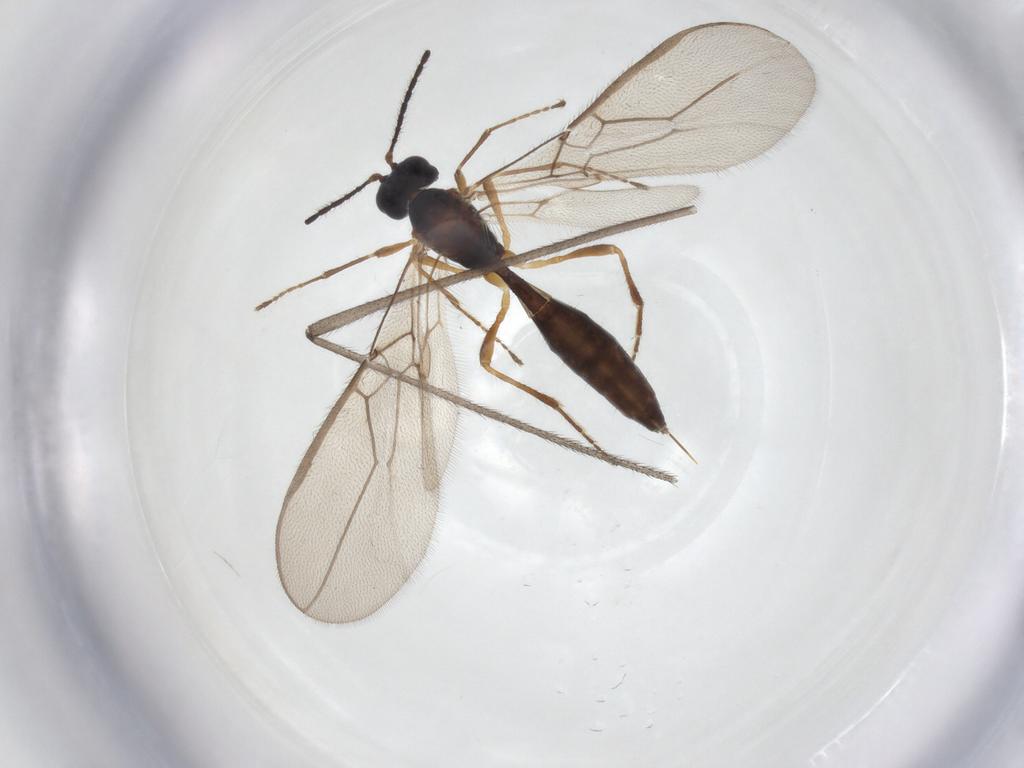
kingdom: Animalia
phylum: Arthropoda
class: Insecta
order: Hymenoptera
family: Braconidae
